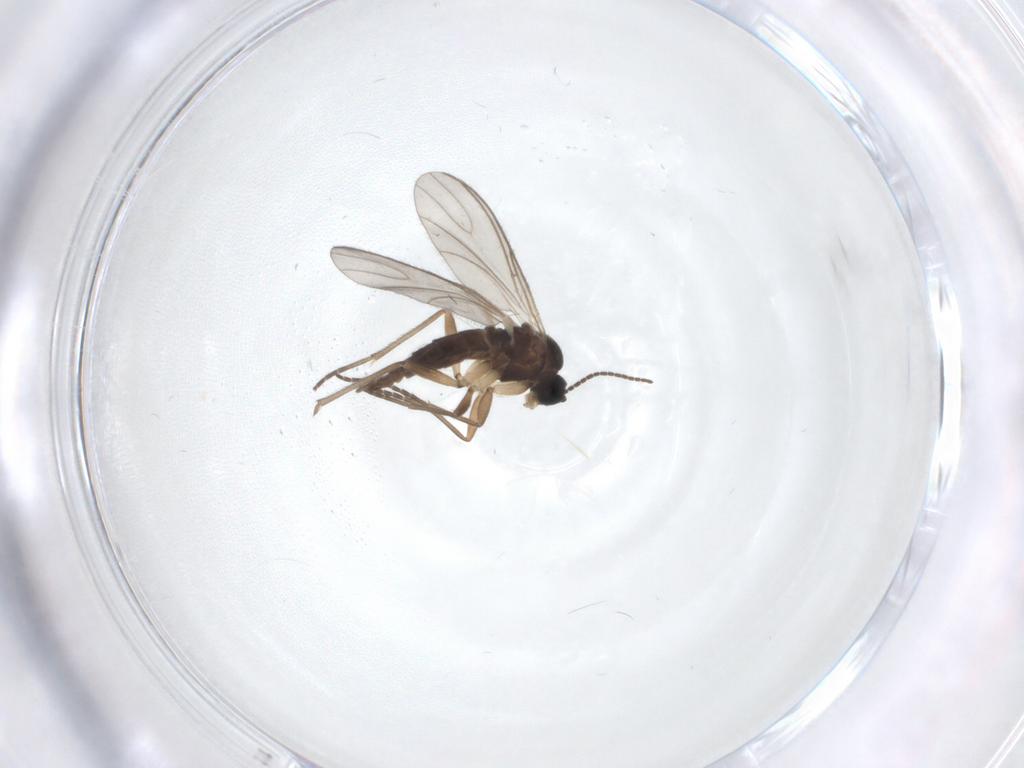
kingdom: Animalia
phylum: Arthropoda
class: Insecta
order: Diptera
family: Sciaridae
